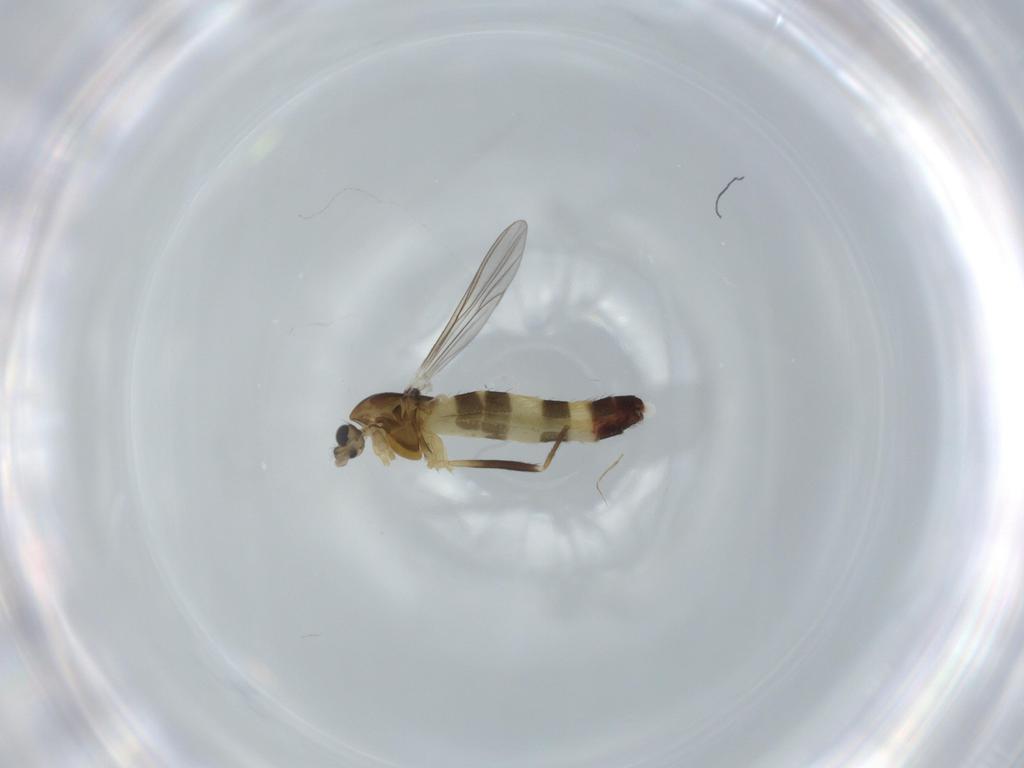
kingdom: Animalia
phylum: Arthropoda
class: Insecta
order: Diptera
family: Chironomidae
